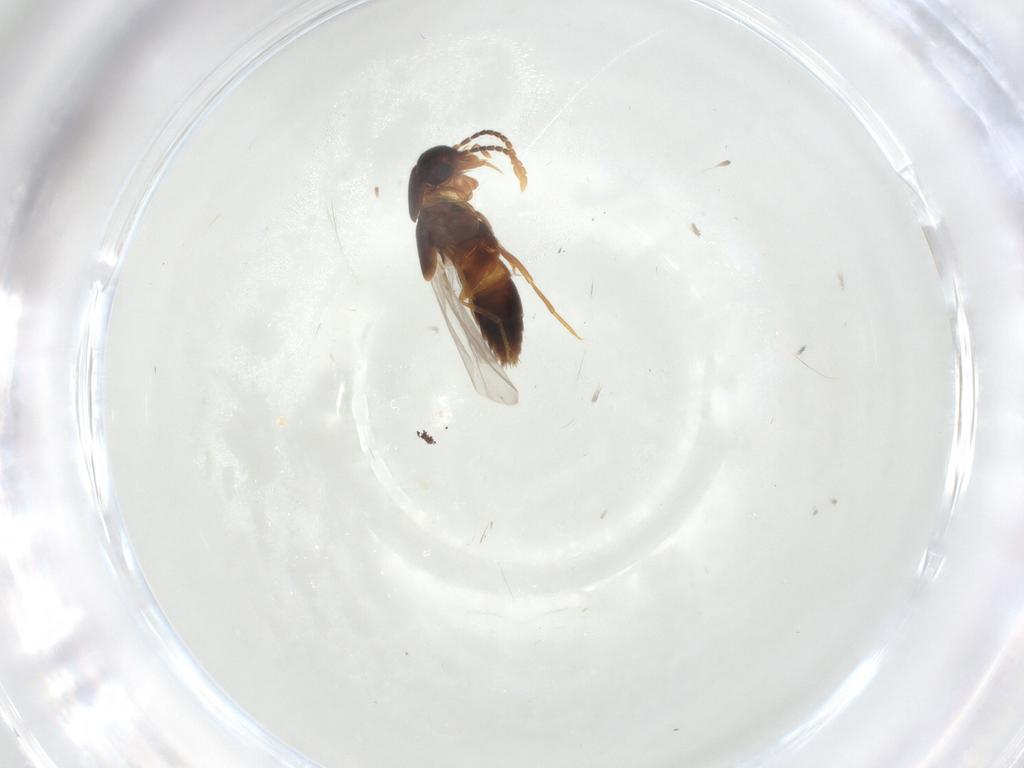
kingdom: Animalia
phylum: Arthropoda
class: Insecta
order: Coleoptera
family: Staphylinidae
